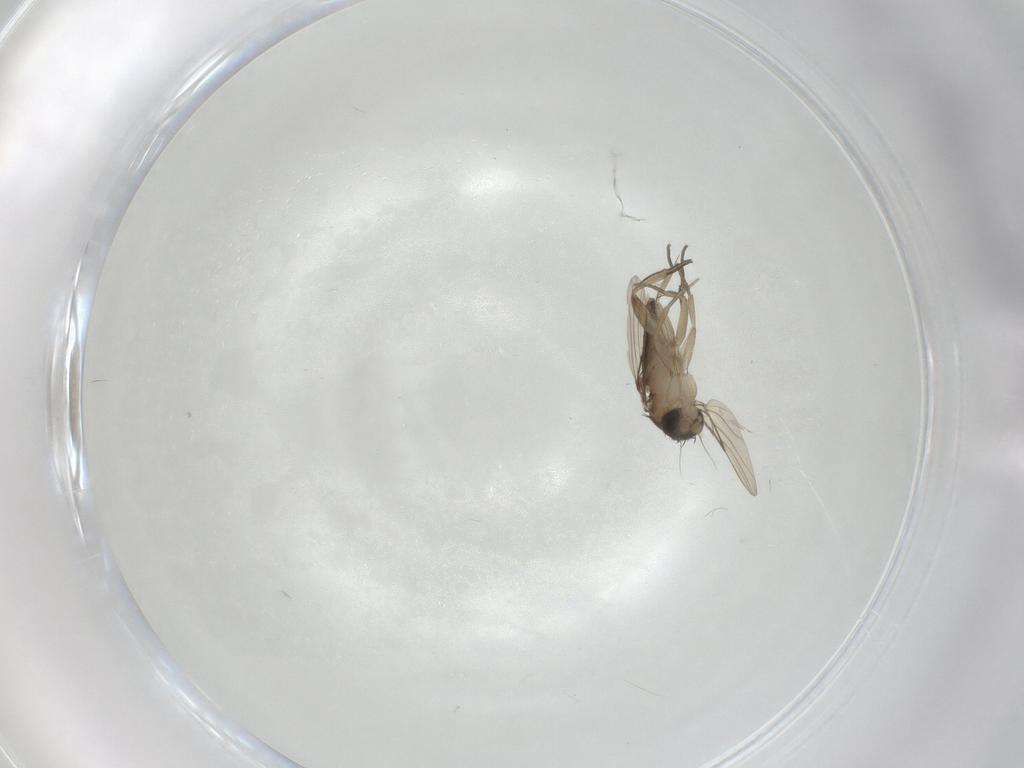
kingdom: Animalia
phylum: Arthropoda
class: Insecta
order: Diptera
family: Phoridae
